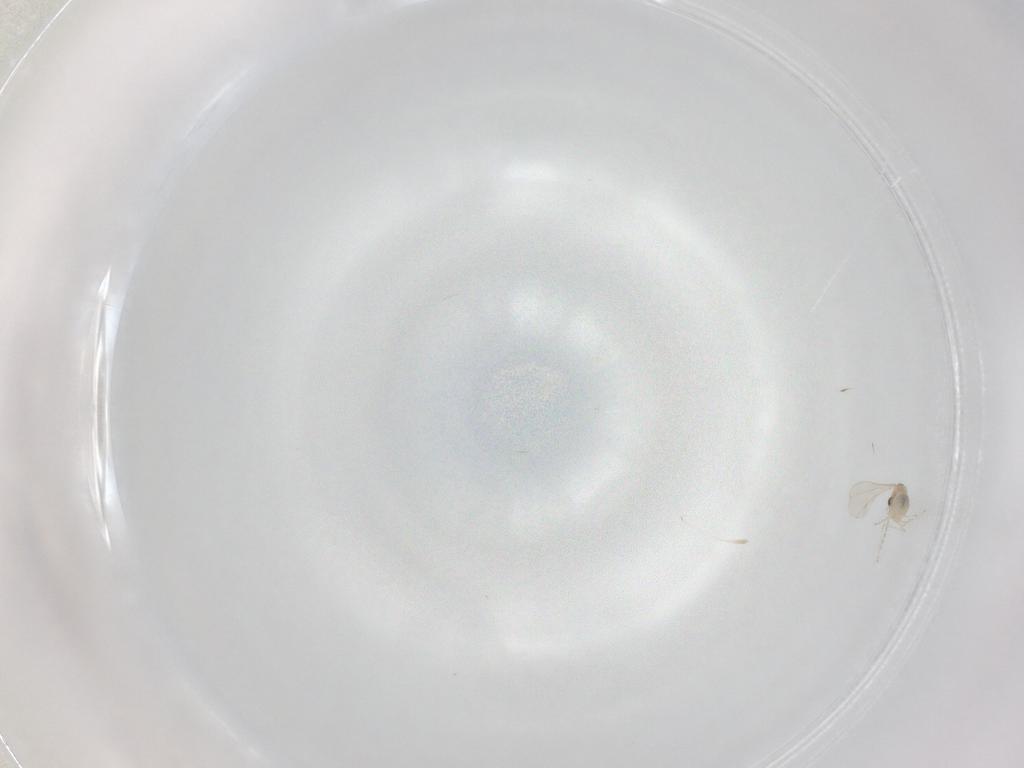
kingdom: Animalia
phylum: Arthropoda
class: Insecta
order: Diptera
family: Cecidomyiidae
